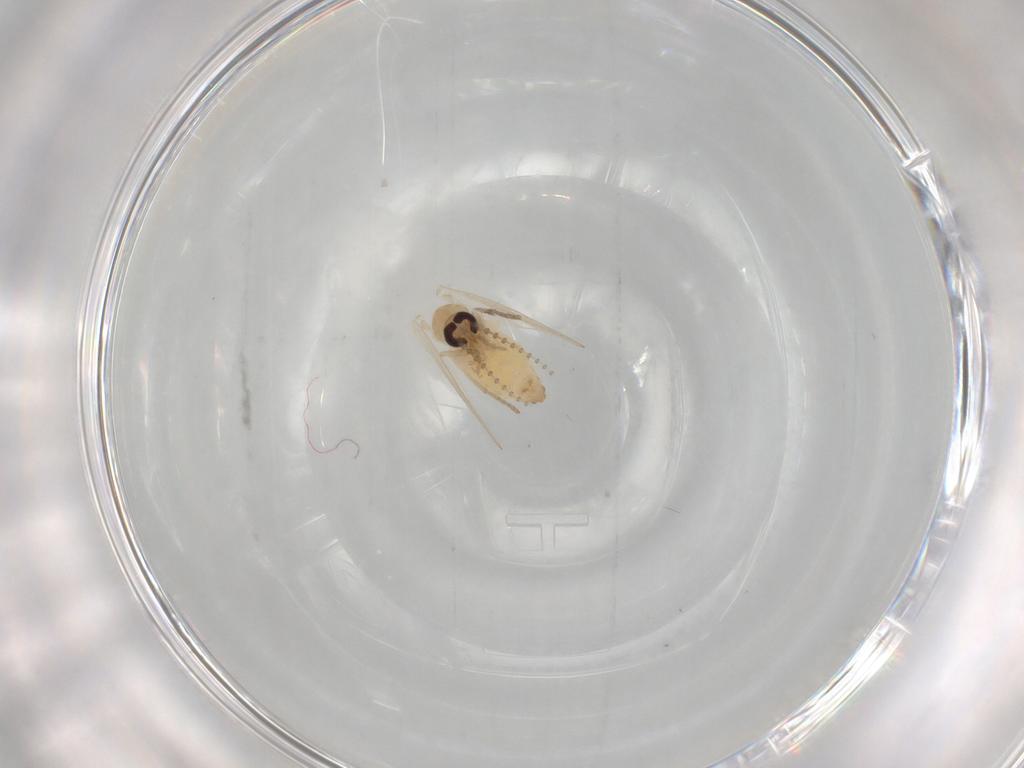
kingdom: Animalia
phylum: Arthropoda
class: Insecta
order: Diptera
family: Psychodidae
